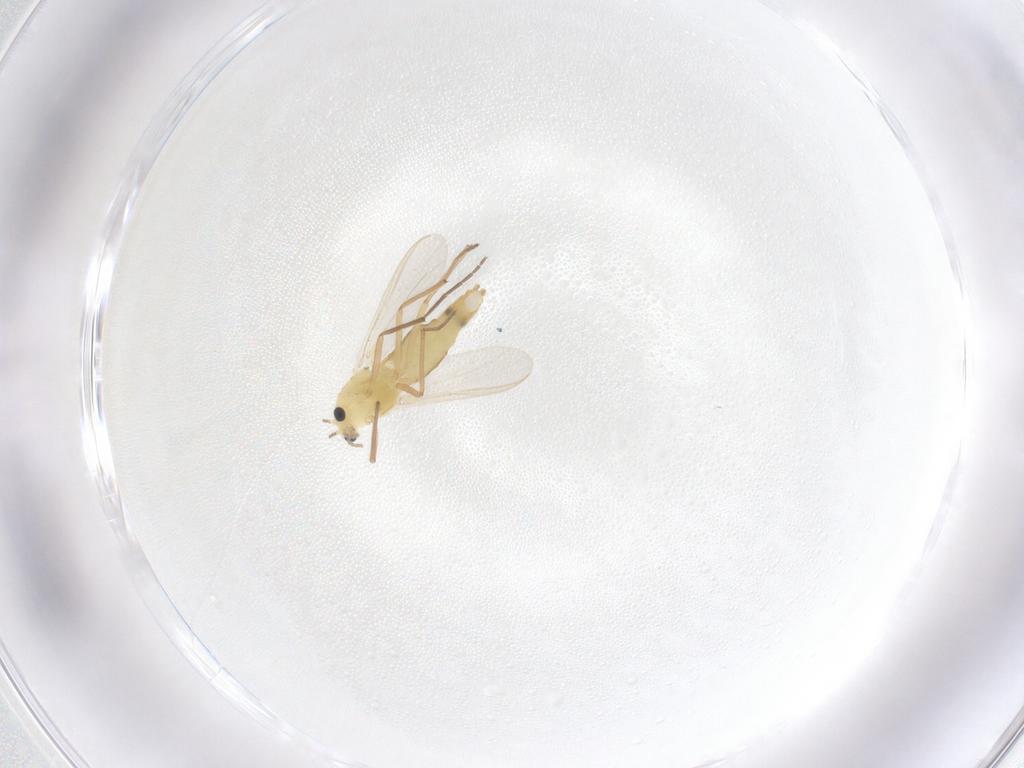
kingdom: Animalia
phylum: Arthropoda
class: Insecta
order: Diptera
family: Chironomidae
